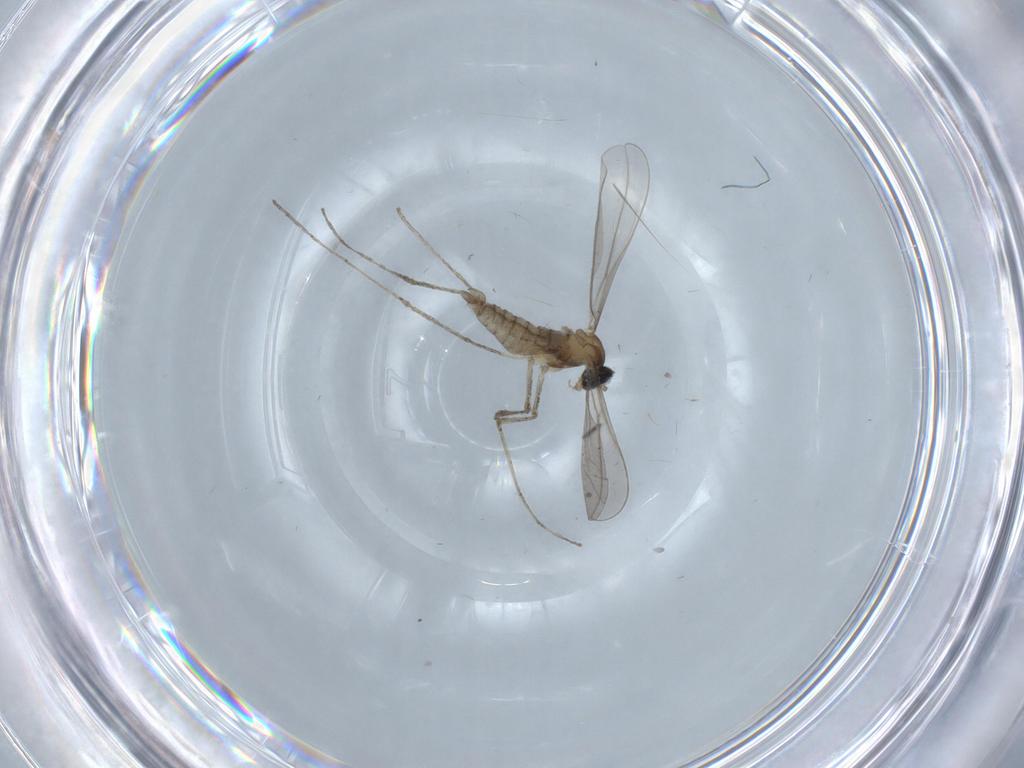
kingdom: Animalia
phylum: Arthropoda
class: Insecta
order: Diptera
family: Cecidomyiidae
